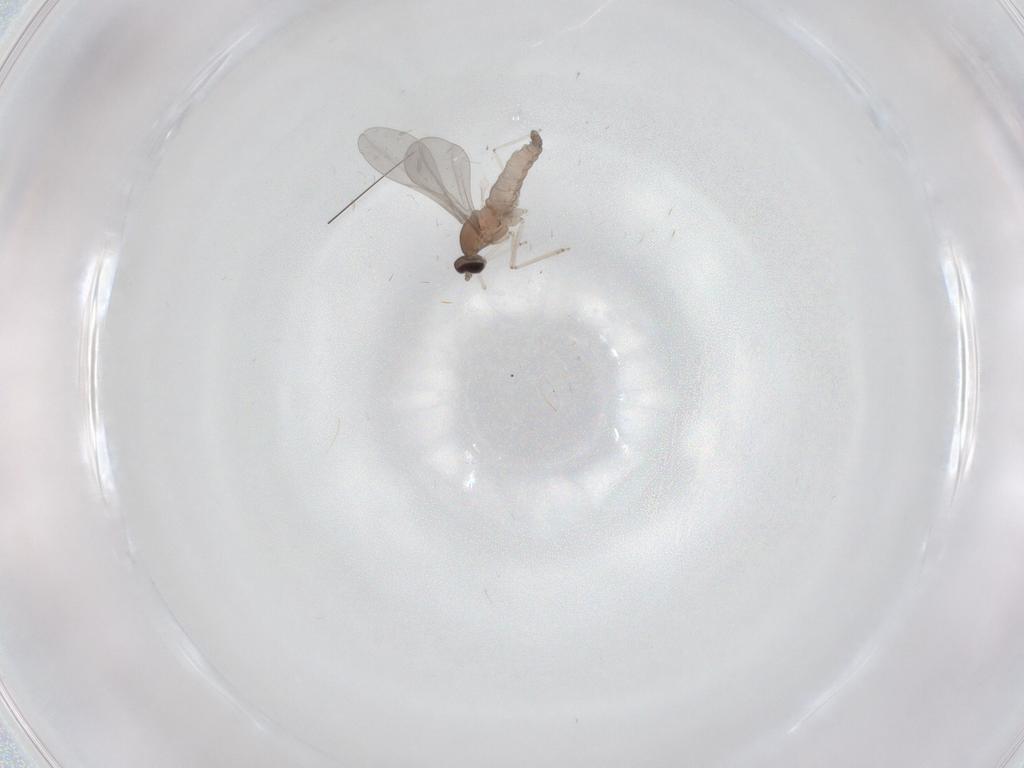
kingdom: Animalia
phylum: Arthropoda
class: Insecta
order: Diptera
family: Cecidomyiidae
